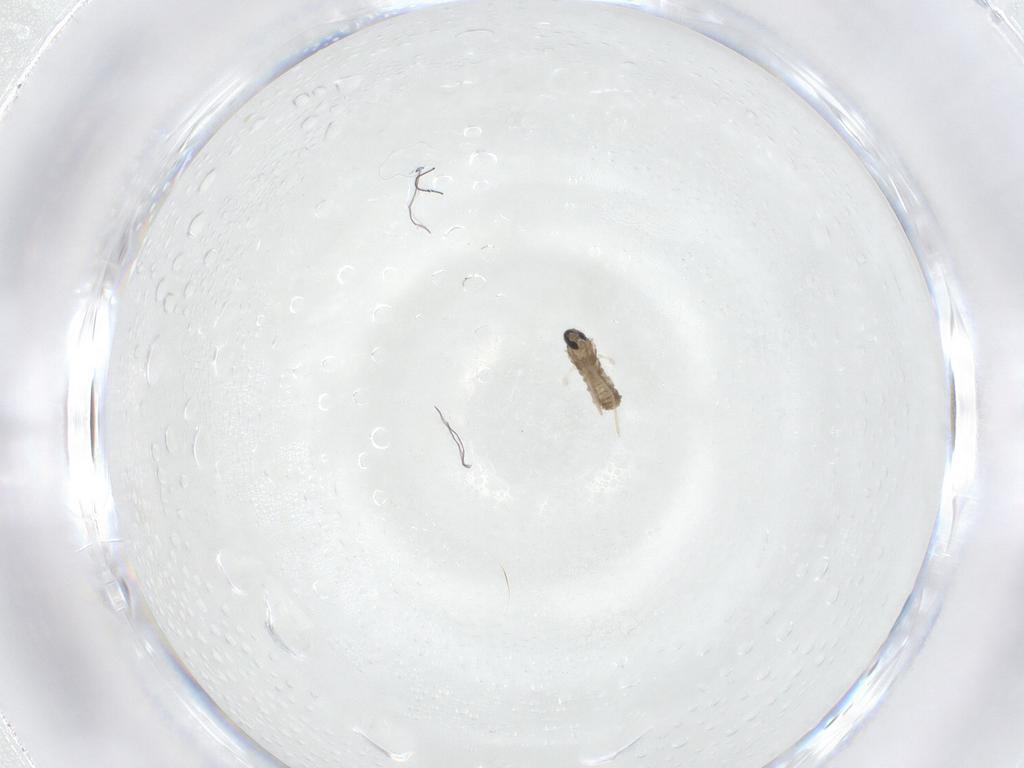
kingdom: Animalia
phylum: Arthropoda
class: Insecta
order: Diptera
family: Cecidomyiidae
